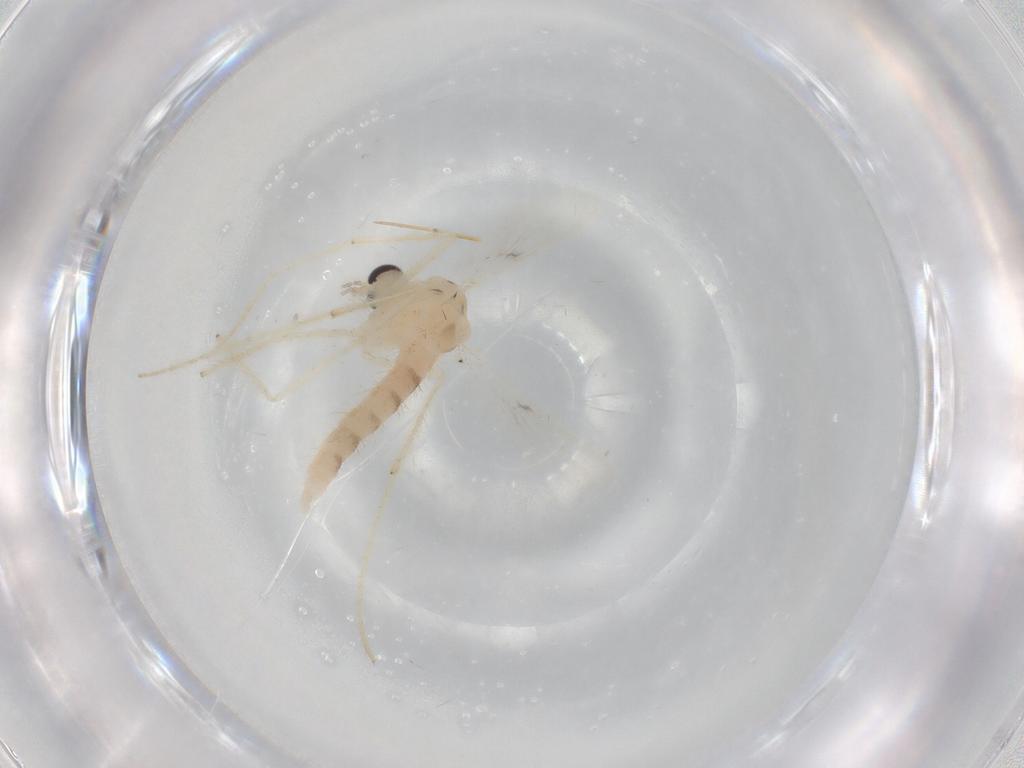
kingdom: Animalia
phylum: Arthropoda
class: Insecta
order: Diptera
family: Chironomidae
